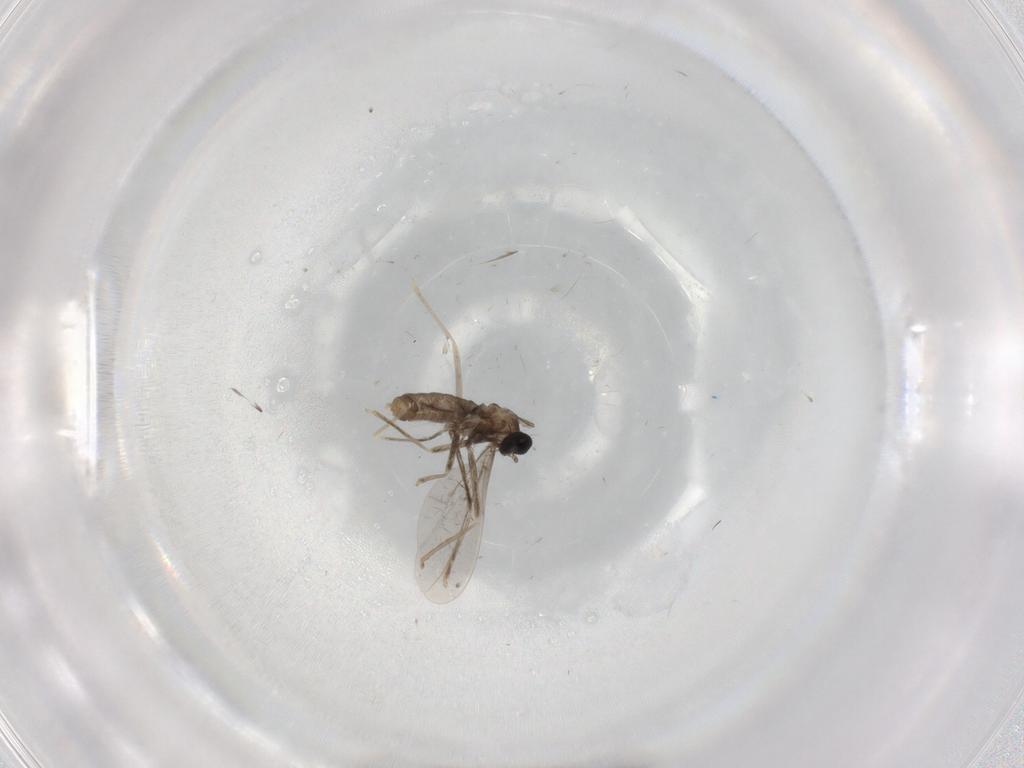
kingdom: Animalia
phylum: Arthropoda
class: Insecta
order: Diptera
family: Cecidomyiidae
